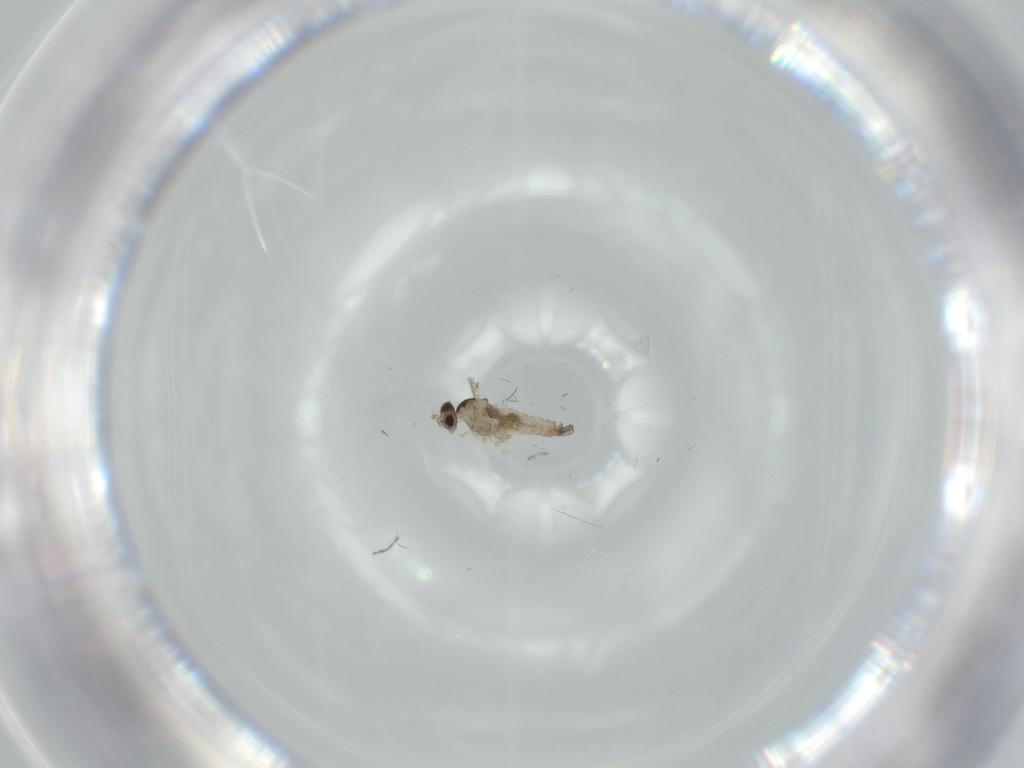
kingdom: Animalia
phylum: Arthropoda
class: Insecta
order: Diptera
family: Cecidomyiidae
